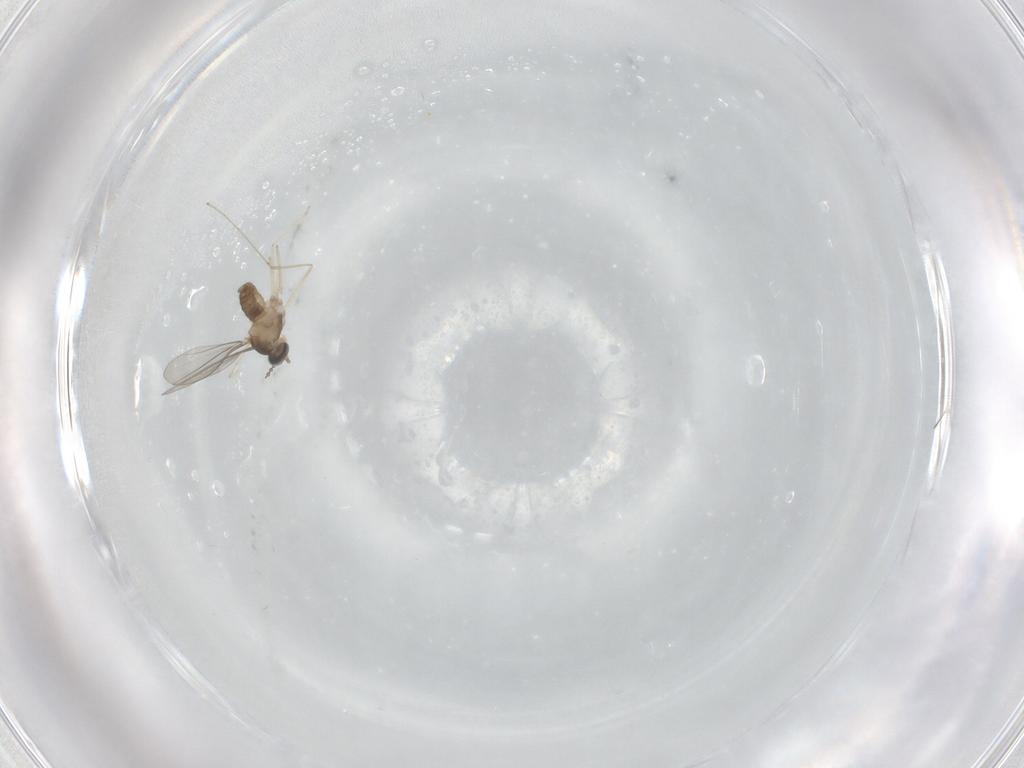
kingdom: Animalia
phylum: Arthropoda
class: Insecta
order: Diptera
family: Cecidomyiidae
